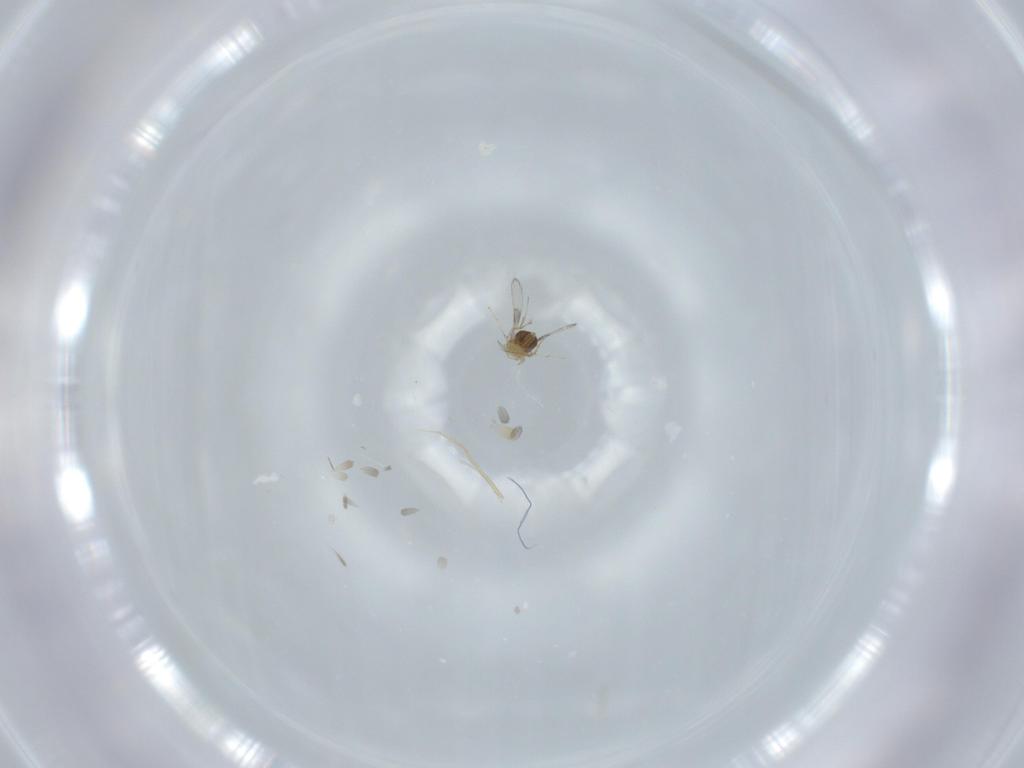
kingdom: Animalia
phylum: Arthropoda
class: Insecta
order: Hymenoptera
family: Trichogrammatidae
